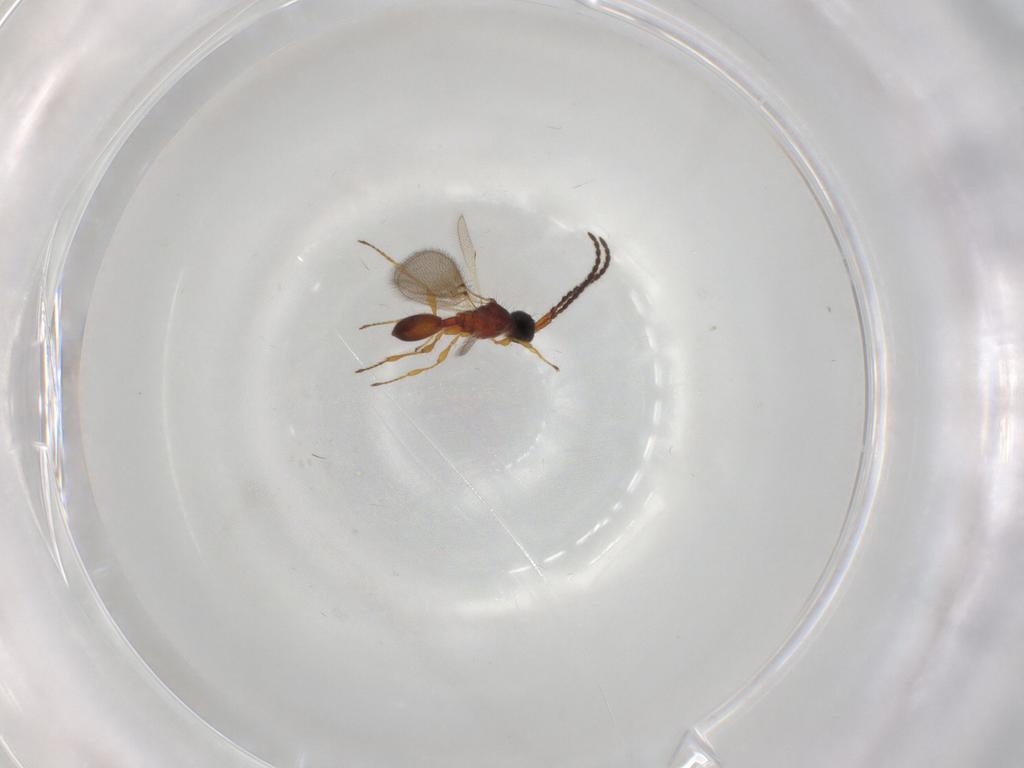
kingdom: Animalia
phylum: Arthropoda
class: Insecta
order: Hymenoptera
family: Diapriidae
